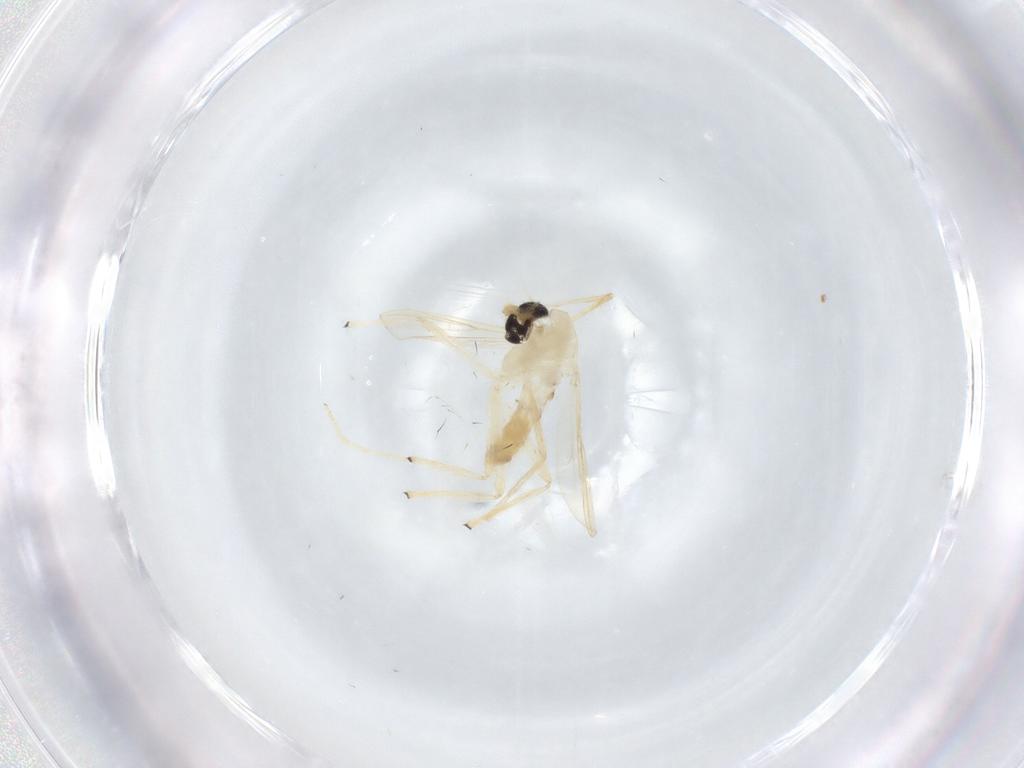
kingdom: Animalia
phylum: Arthropoda
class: Insecta
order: Diptera
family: Chironomidae
